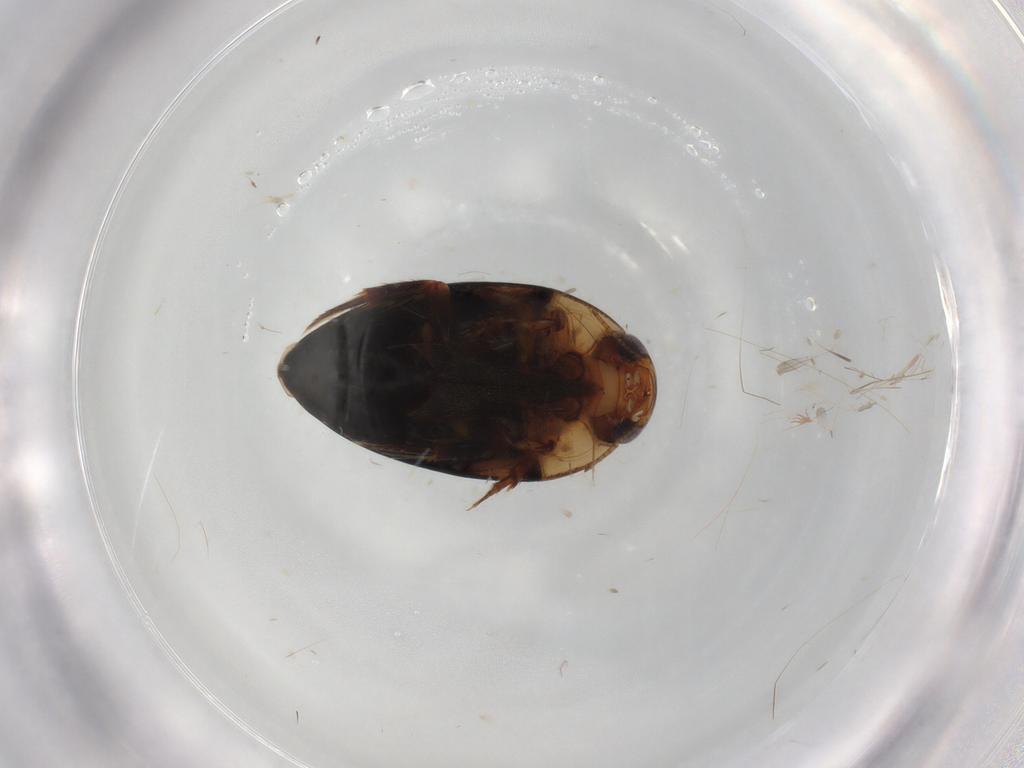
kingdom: Animalia
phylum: Arthropoda
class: Insecta
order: Coleoptera
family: Noteridae
